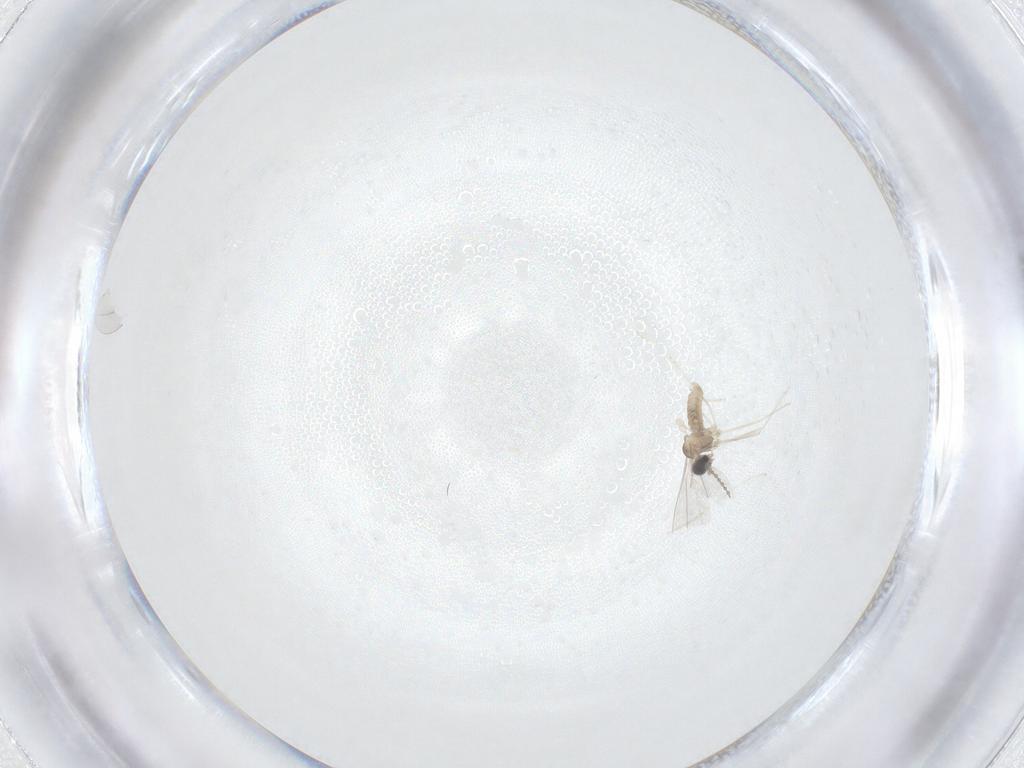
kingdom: Animalia
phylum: Arthropoda
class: Insecta
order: Diptera
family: Cecidomyiidae
